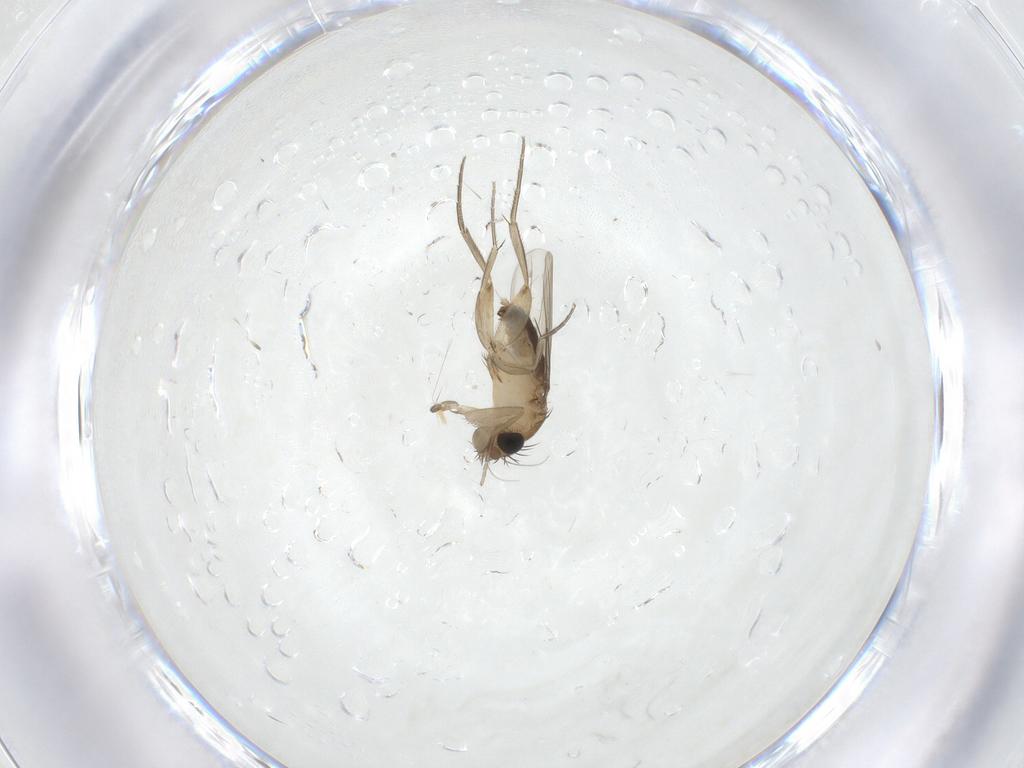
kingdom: Animalia
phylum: Arthropoda
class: Insecta
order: Diptera
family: Phoridae
